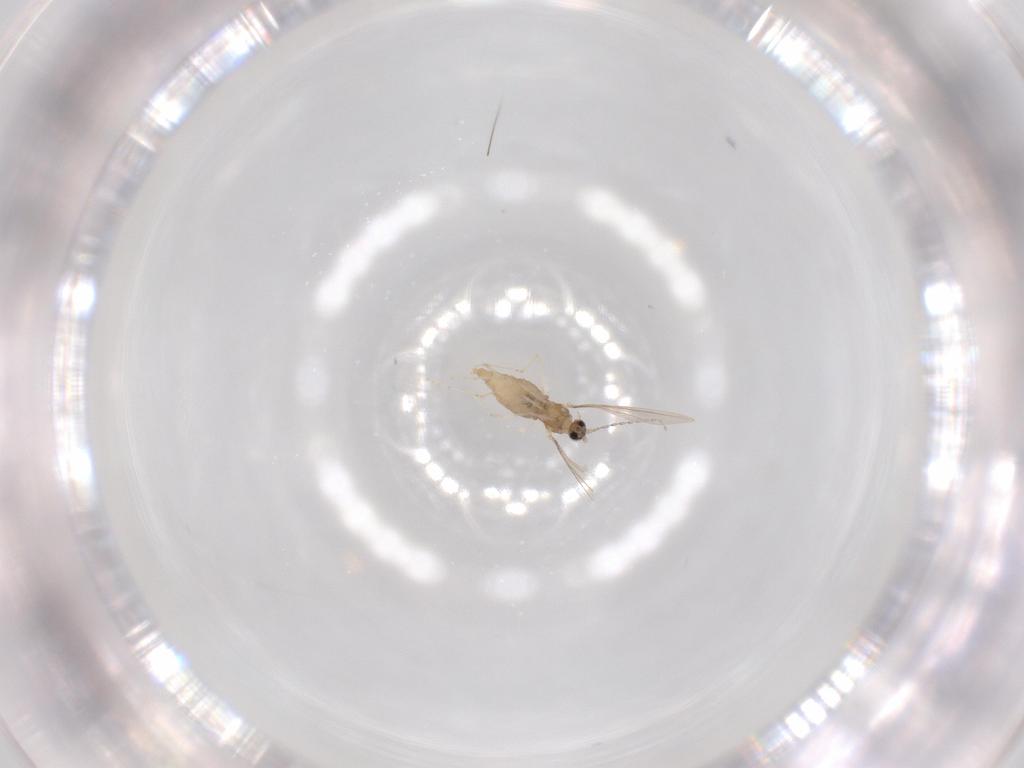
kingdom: Animalia
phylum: Arthropoda
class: Insecta
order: Diptera
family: Psychodidae
